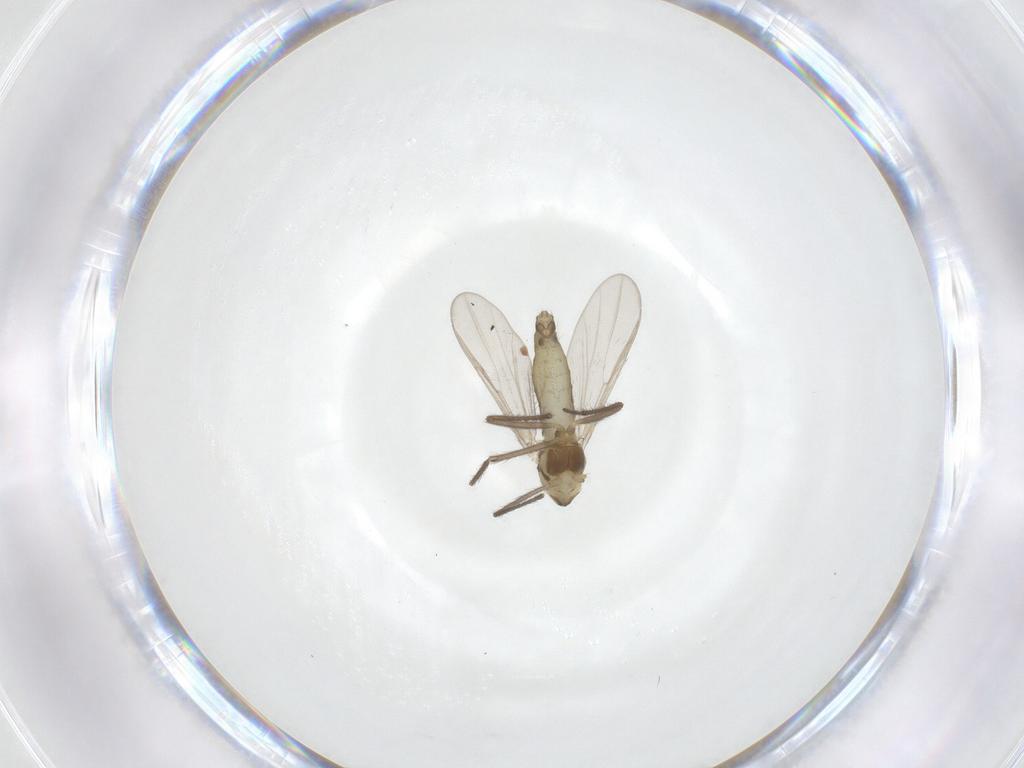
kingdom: Animalia
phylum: Arthropoda
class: Insecta
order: Diptera
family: Chironomidae
